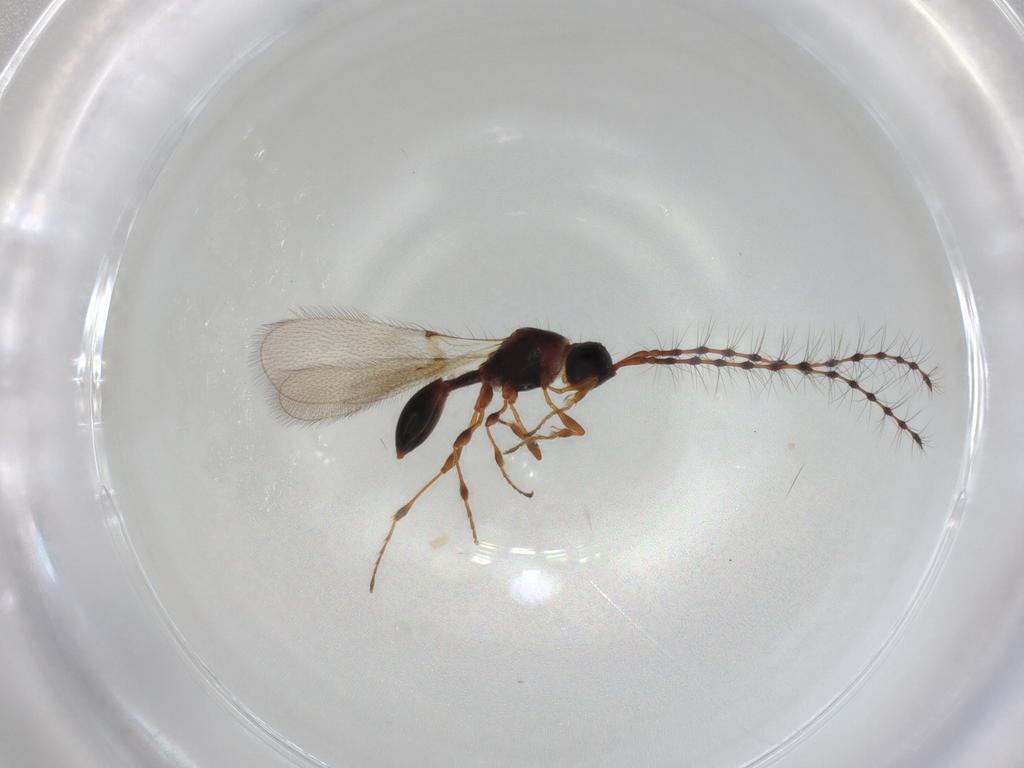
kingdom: Animalia
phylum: Arthropoda
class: Insecta
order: Hymenoptera
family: Diapriidae
